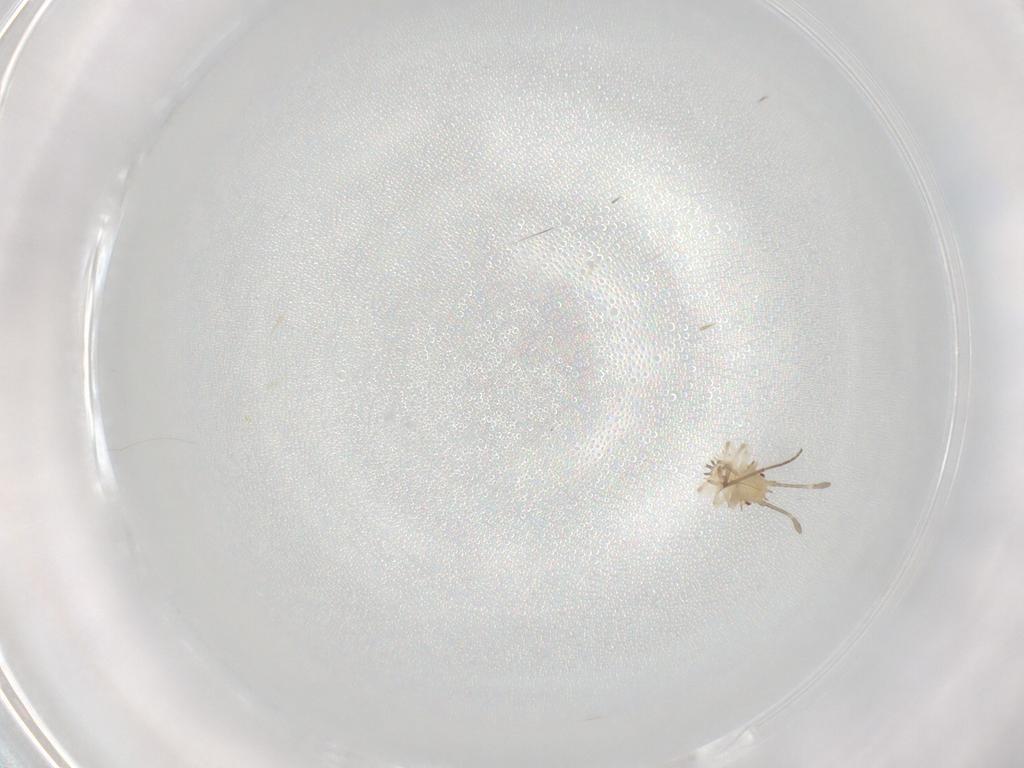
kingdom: Animalia
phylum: Arthropoda
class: Insecta
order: Hemiptera
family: Tingidae
